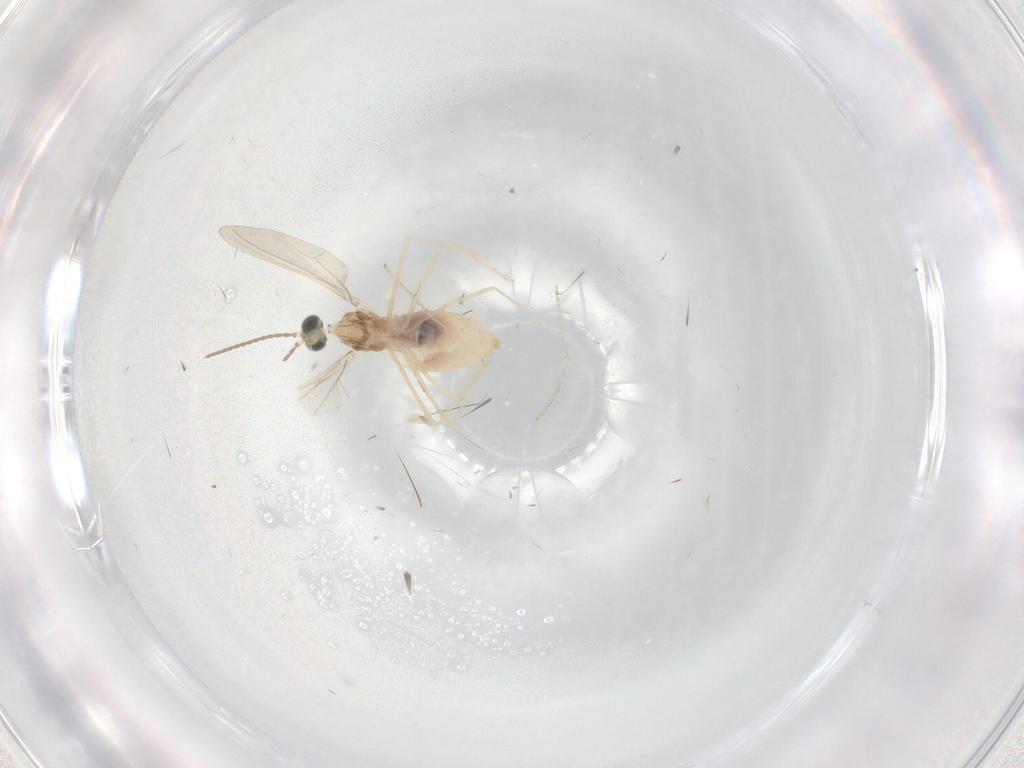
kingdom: Animalia
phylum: Arthropoda
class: Insecta
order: Diptera
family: Cecidomyiidae
